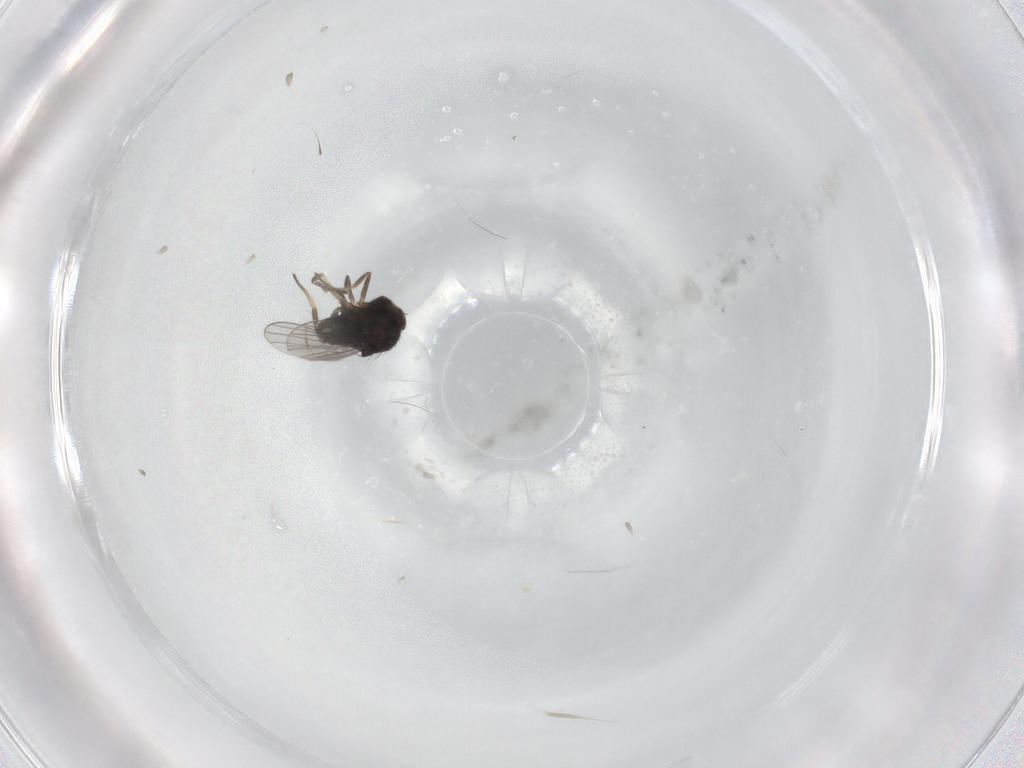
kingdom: Animalia
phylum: Arthropoda
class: Insecta
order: Diptera
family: Dolichopodidae
